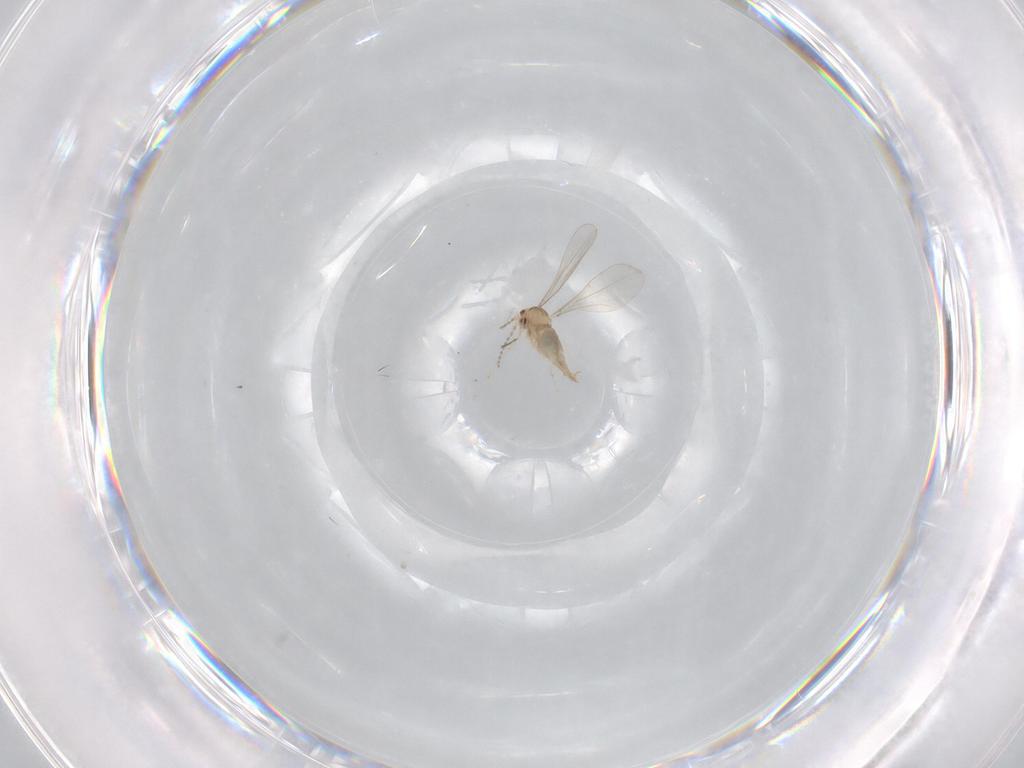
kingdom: Animalia
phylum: Arthropoda
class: Insecta
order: Diptera
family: Cecidomyiidae
